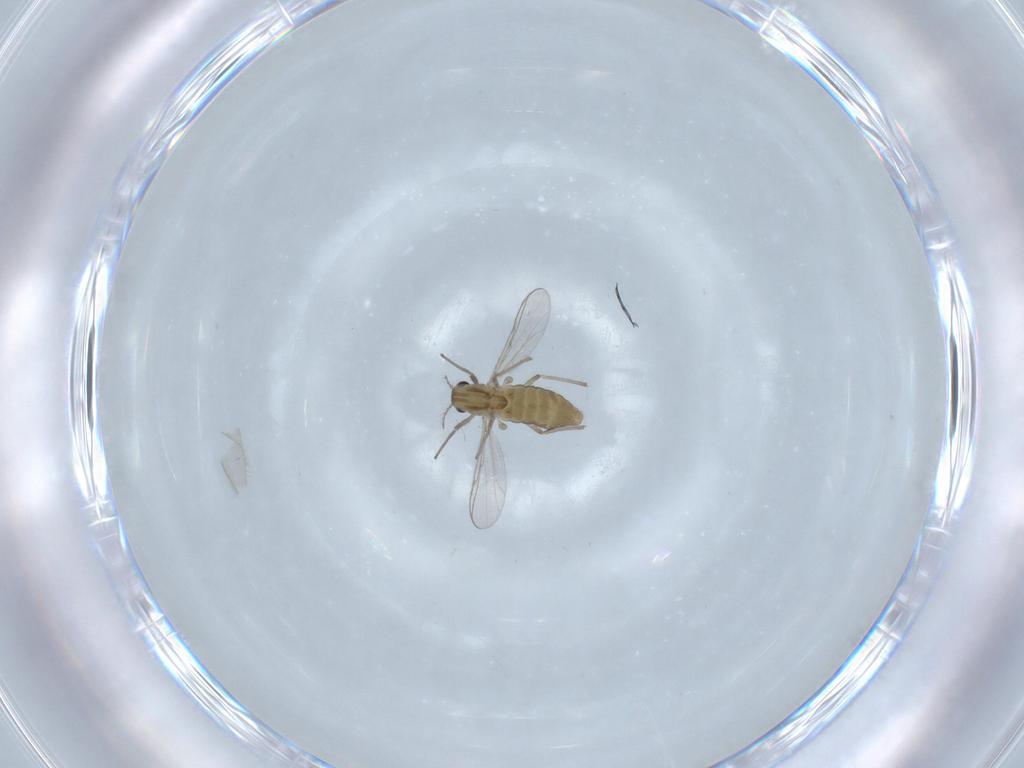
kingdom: Animalia
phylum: Arthropoda
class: Insecta
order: Diptera
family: Chironomidae
